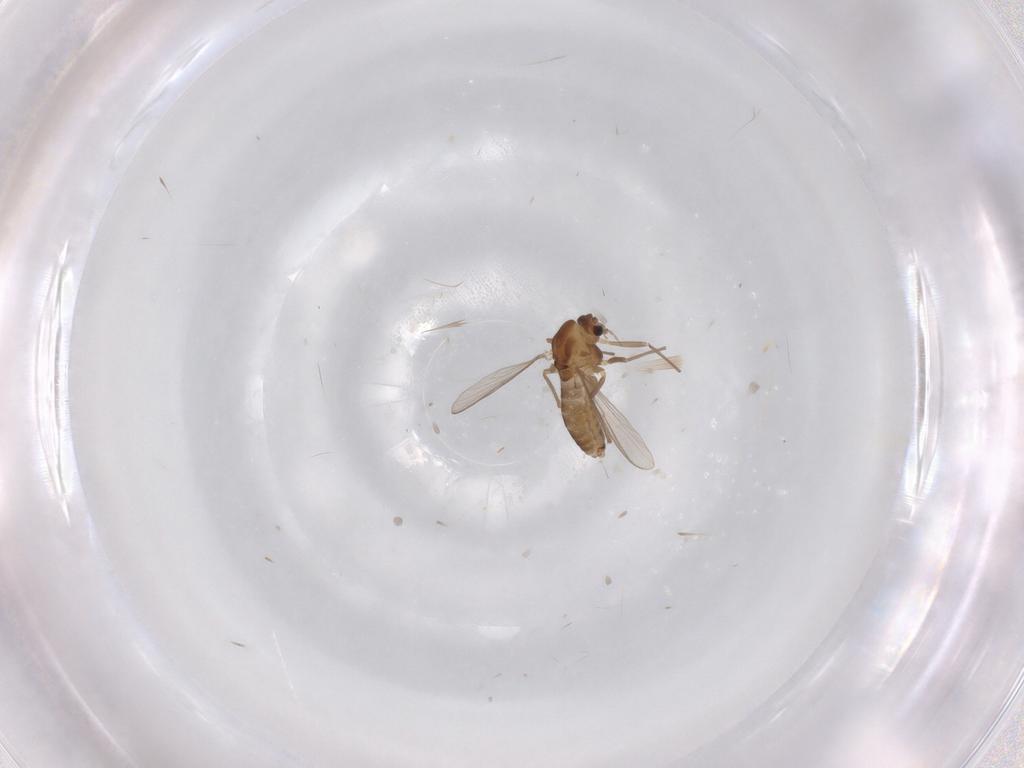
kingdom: Animalia
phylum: Arthropoda
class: Insecta
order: Diptera
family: Chironomidae
